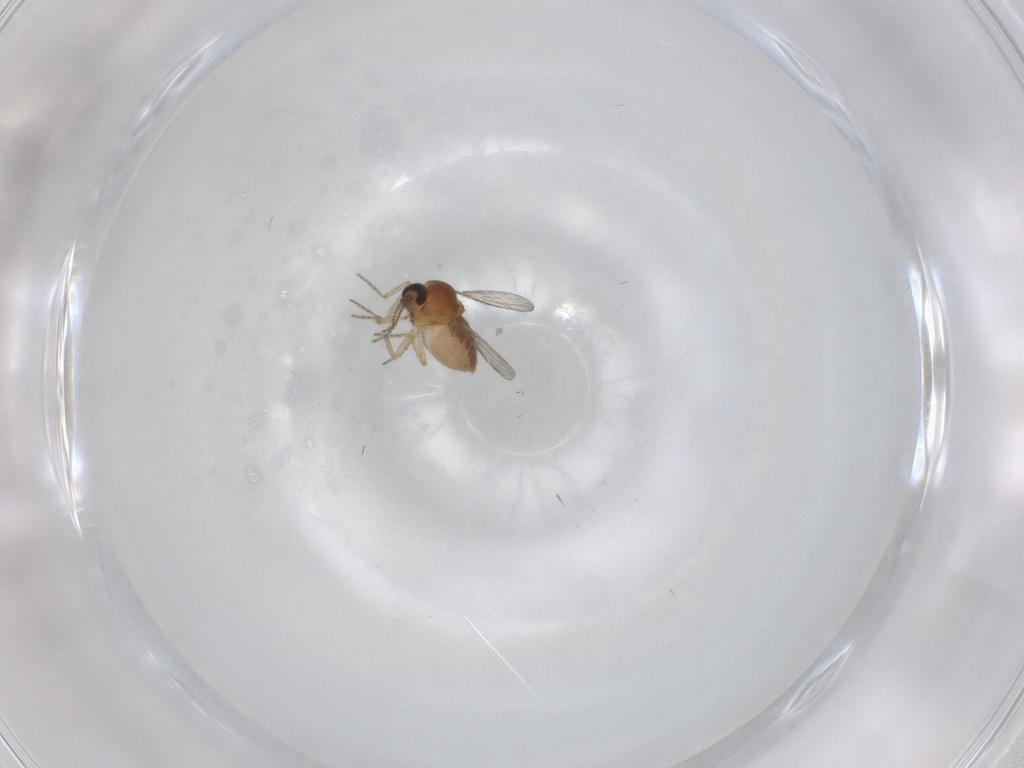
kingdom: Animalia
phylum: Arthropoda
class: Insecta
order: Diptera
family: Ceratopogonidae
